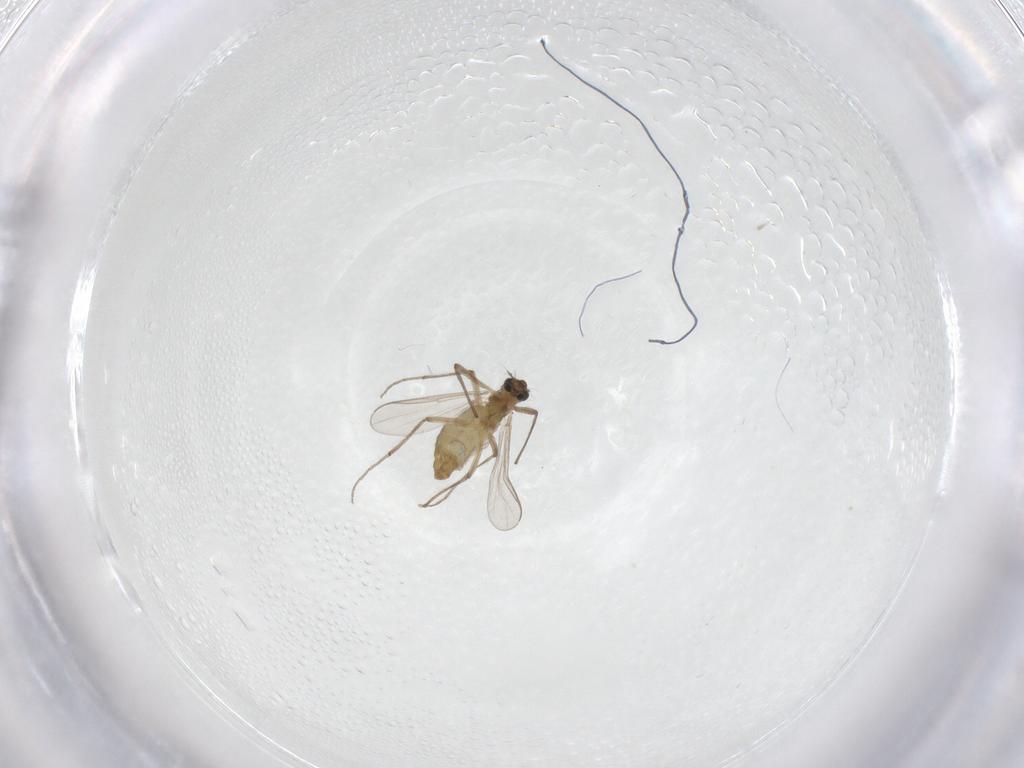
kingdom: Animalia
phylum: Arthropoda
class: Insecta
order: Diptera
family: Chironomidae
